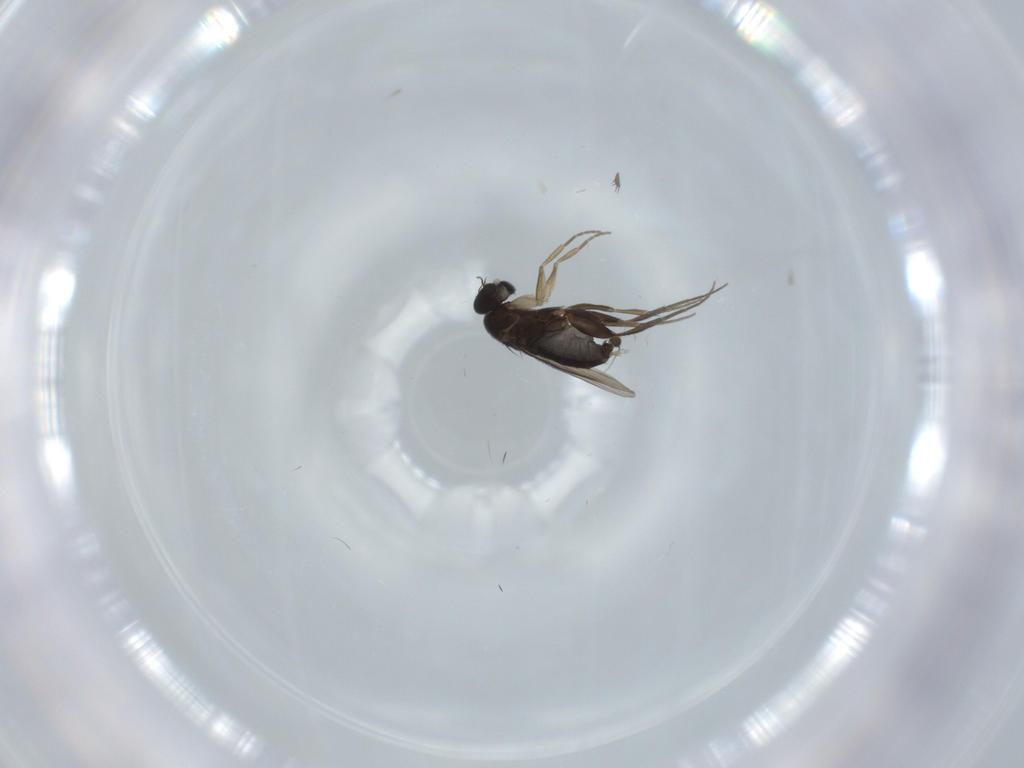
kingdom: Animalia
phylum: Arthropoda
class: Insecta
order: Diptera
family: Sciaridae
